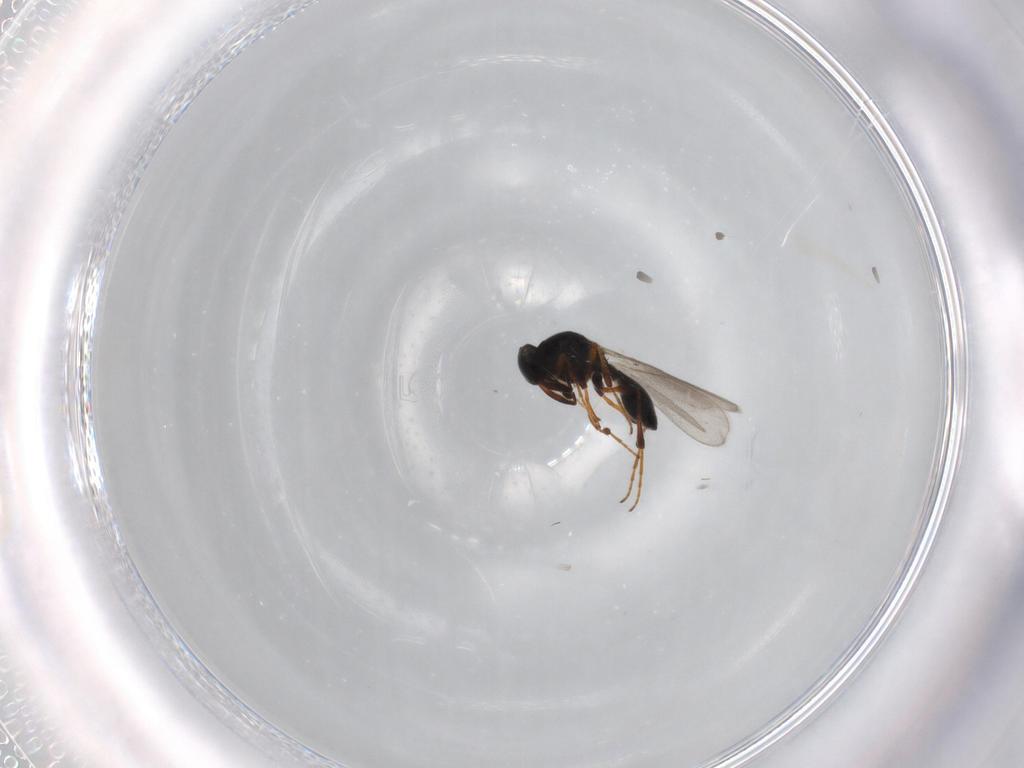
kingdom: Animalia
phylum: Arthropoda
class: Insecta
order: Hymenoptera
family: Platygastridae
